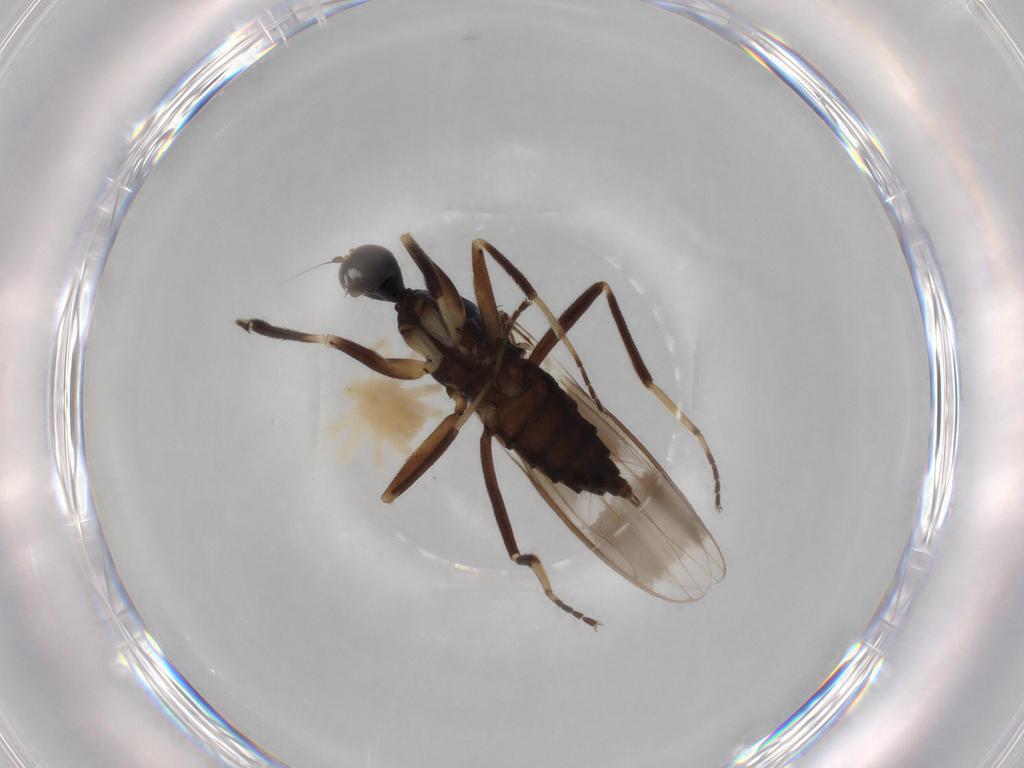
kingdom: Animalia
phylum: Arthropoda
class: Insecta
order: Diptera
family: Hybotidae
